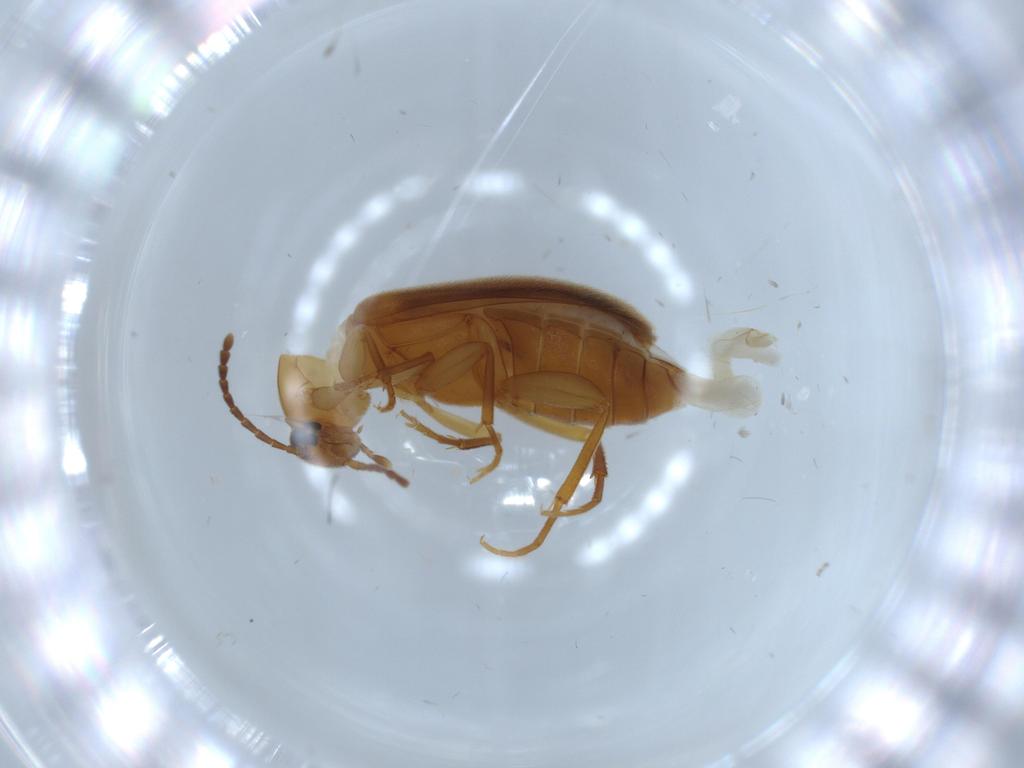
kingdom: Animalia
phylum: Arthropoda
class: Insecta
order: Coleoptera
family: Scraptiidae
